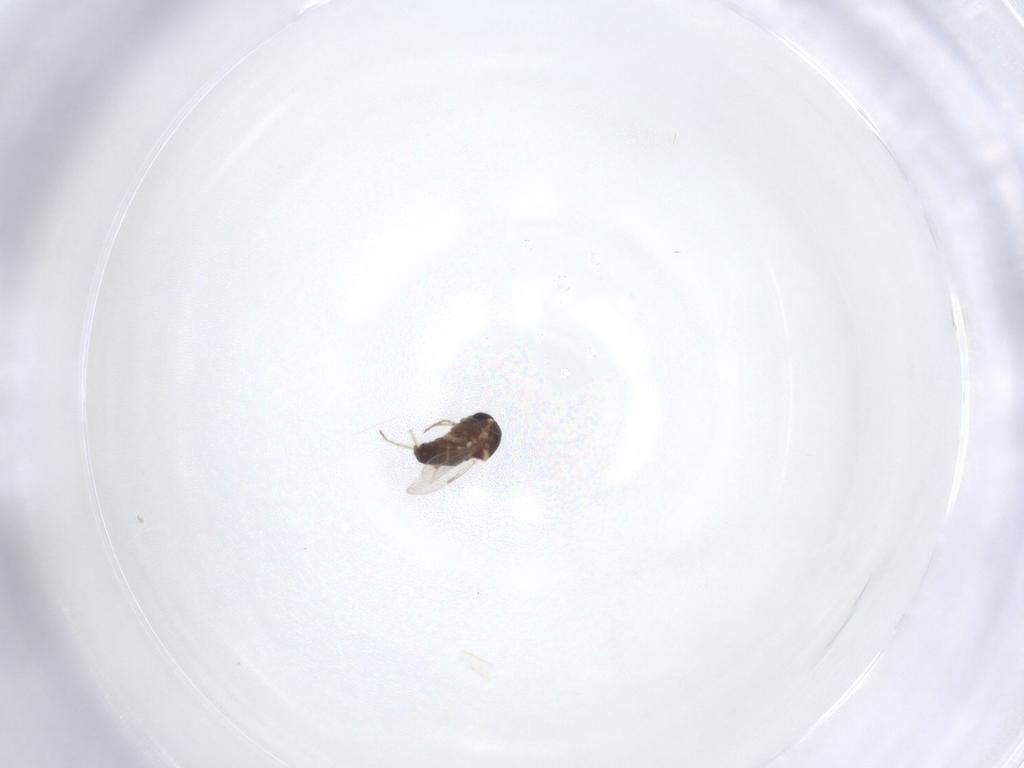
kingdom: Animalia
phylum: Arthropoda
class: Insecta
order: Diptera
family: Ceratopogonidae
